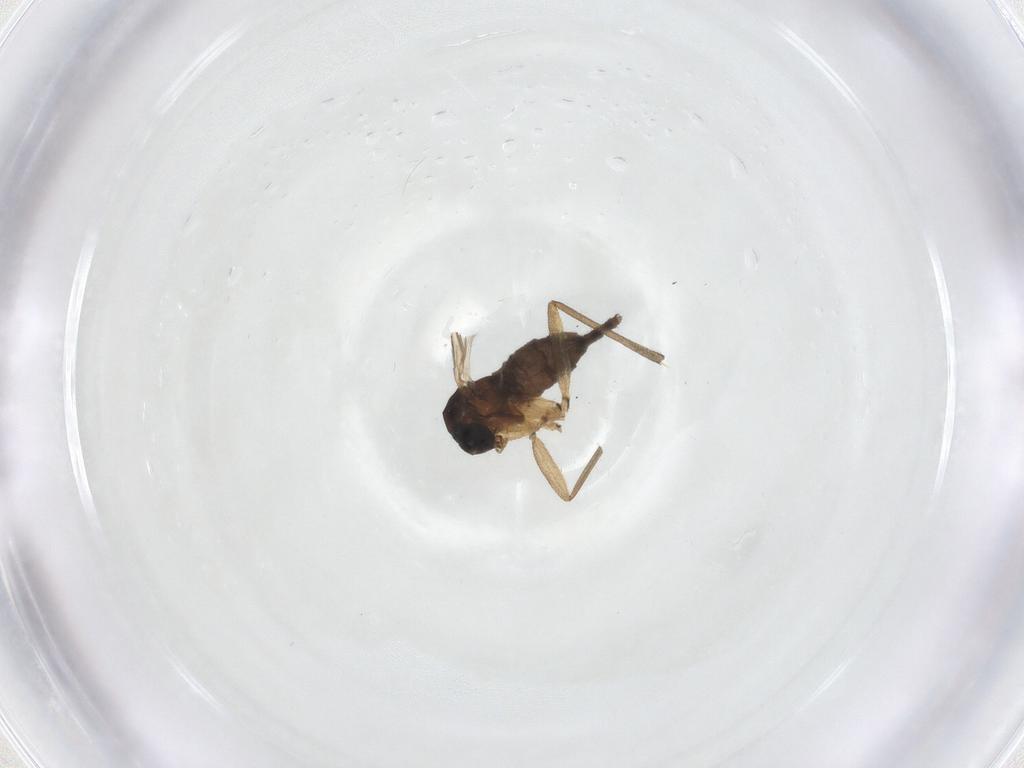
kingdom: Animalia
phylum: Arthropoda
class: Insecta
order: Diptera
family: Sciaridae
